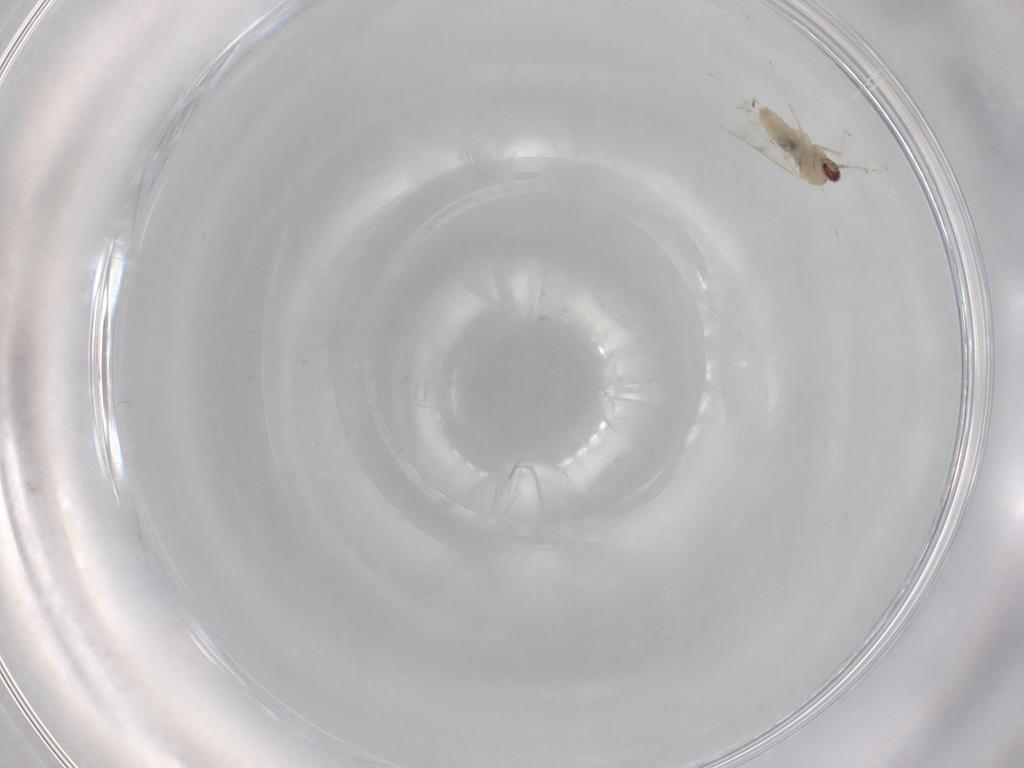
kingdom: Animalia
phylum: Arthropoda
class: Insecta
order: Diptera
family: Cecidomyiidae
